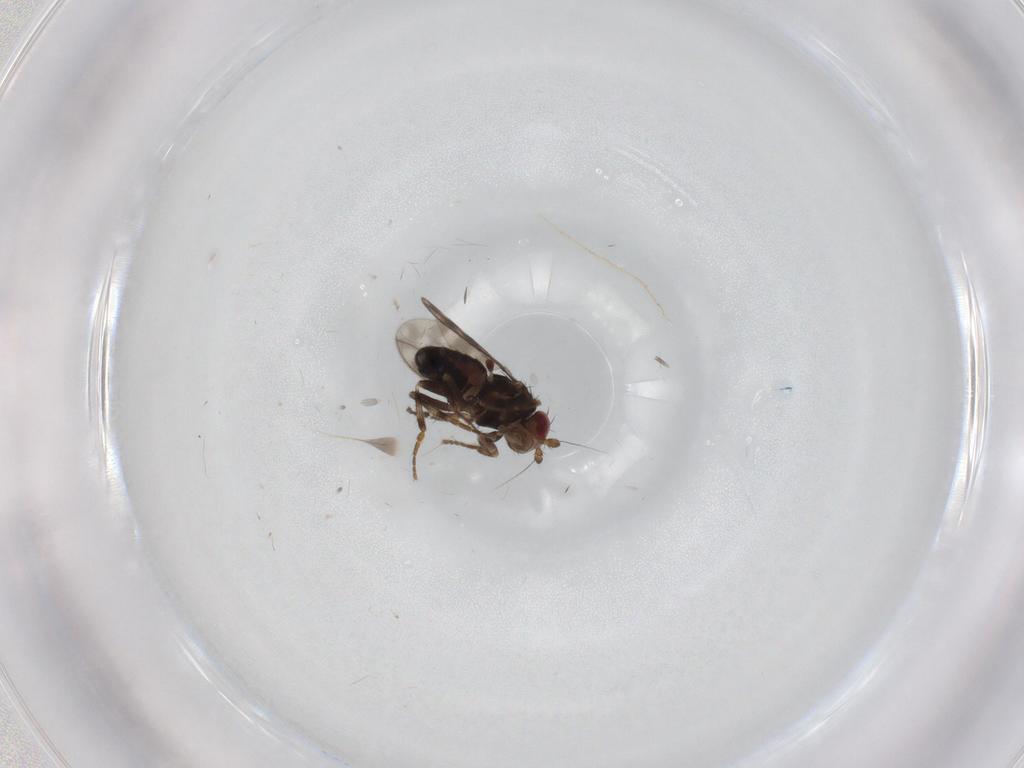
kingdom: Animalia
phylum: Arthropoda
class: Insecta
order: Diptera
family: Sphaeroceridae
